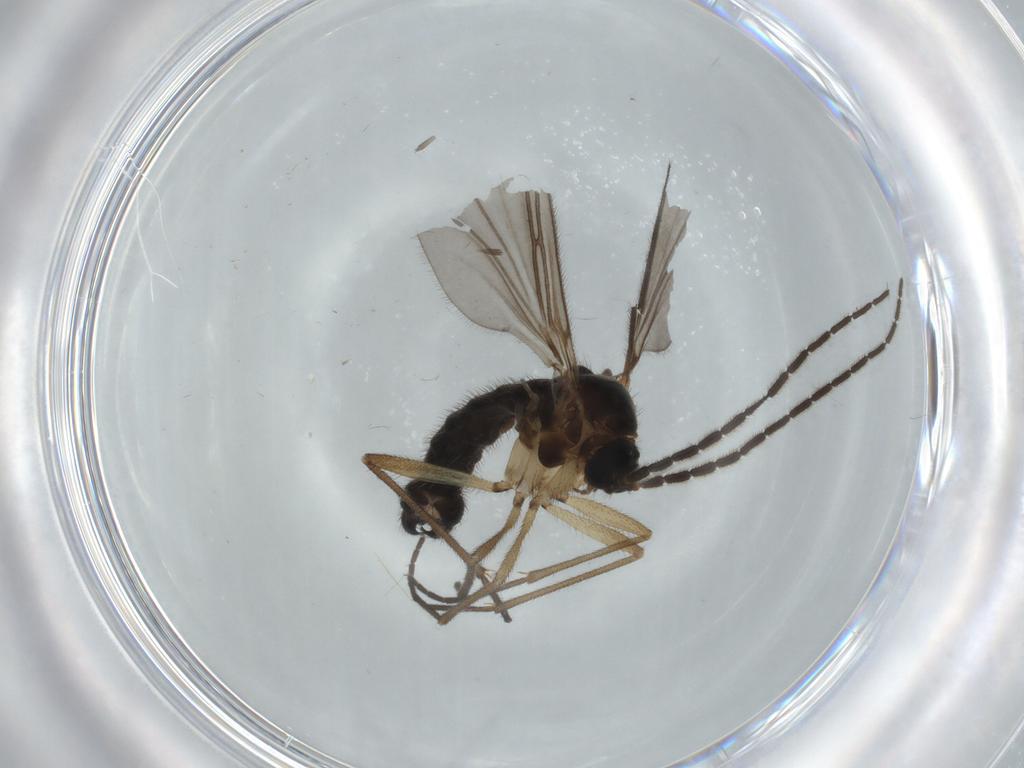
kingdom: Animalia
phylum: Arthropoda
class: Insecta
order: Diptera
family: Sciaridae
